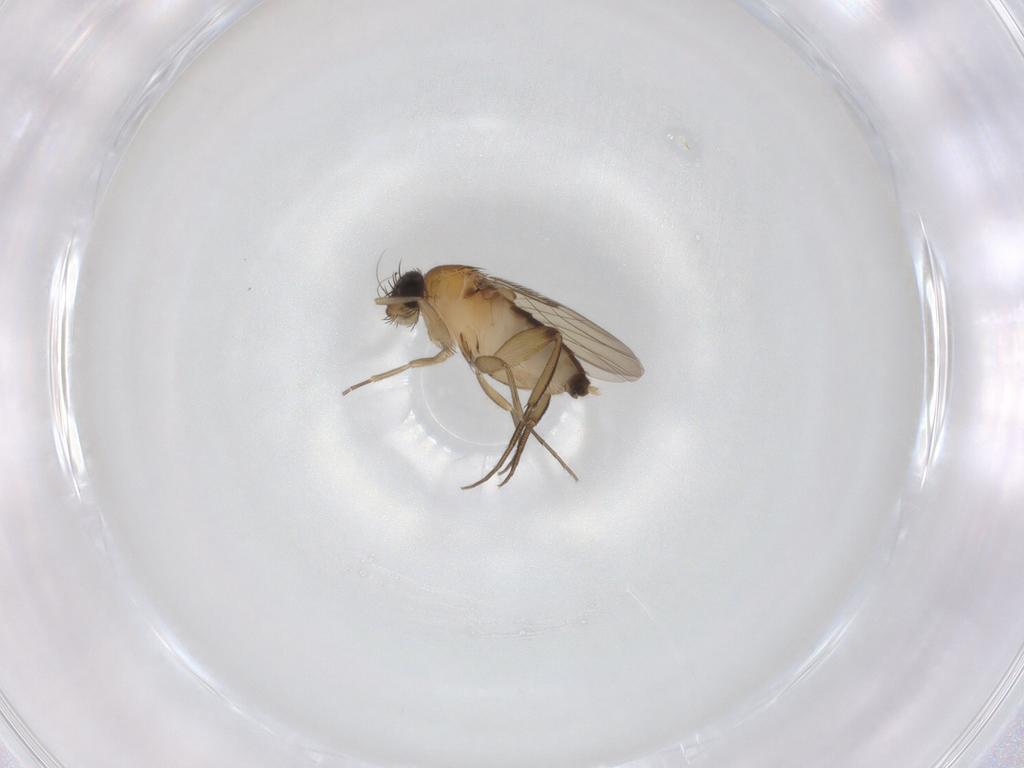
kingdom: Animalia
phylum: Arthropoda
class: Insecta
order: Diptera
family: Phoridae
